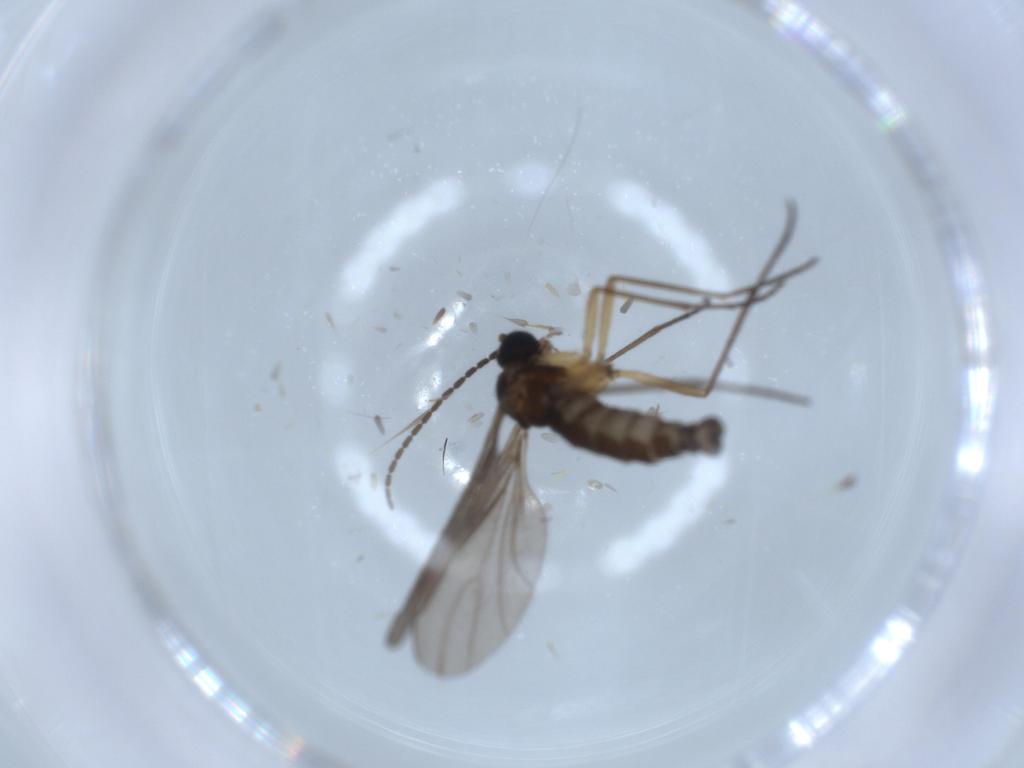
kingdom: Animalia
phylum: Arthropoda
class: Insecta
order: Diptera
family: Sciaridae
